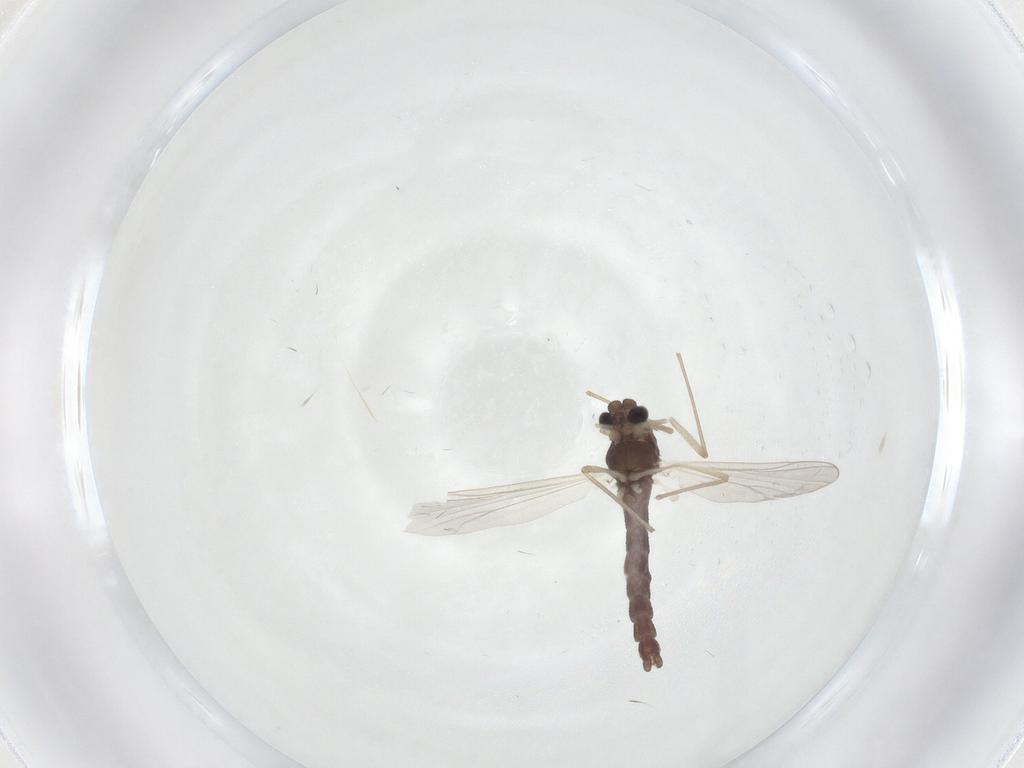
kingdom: Animalia
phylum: Arthropoda
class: Insecta
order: Diptera
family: Chironomidae
